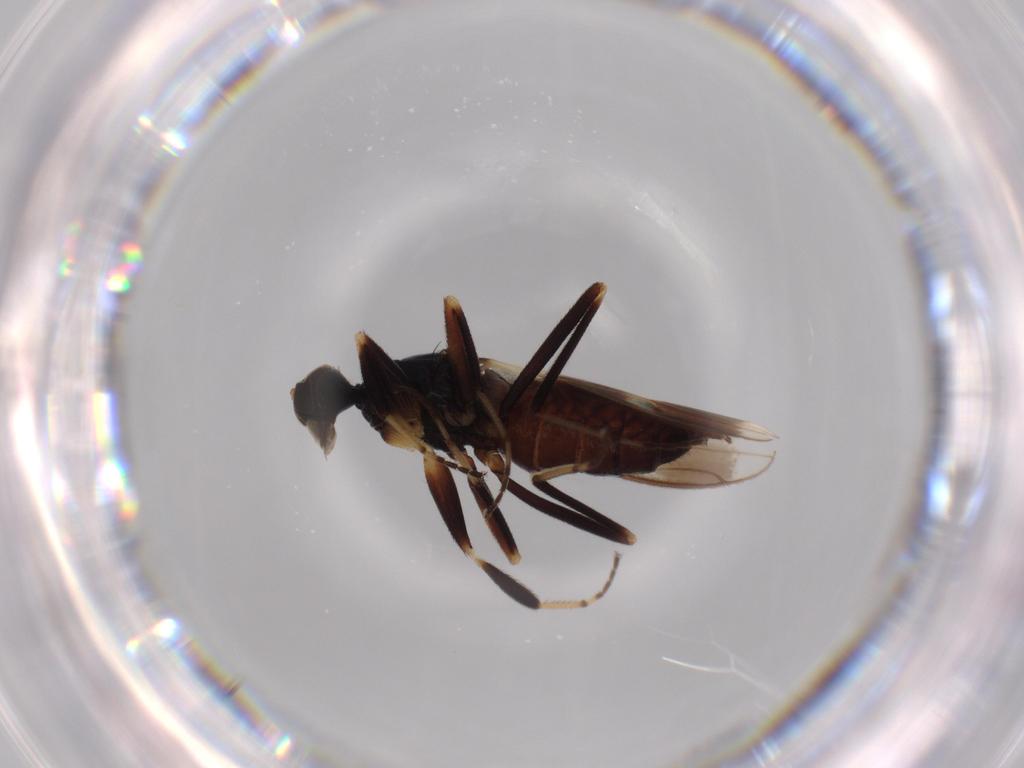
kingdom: Animalia
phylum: Arthropoda
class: Insecta
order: Diptera
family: Hybotidae
